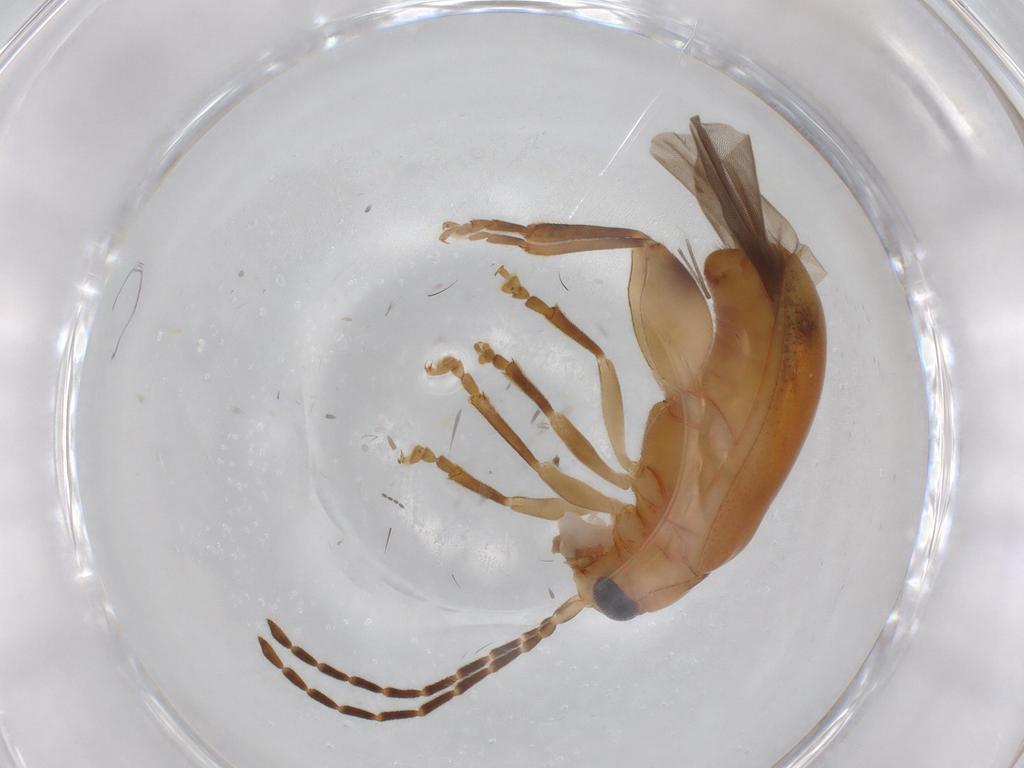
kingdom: Animalia
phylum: Arthropoda
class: Insecta
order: Coleoptera
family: Chrysomelidae
